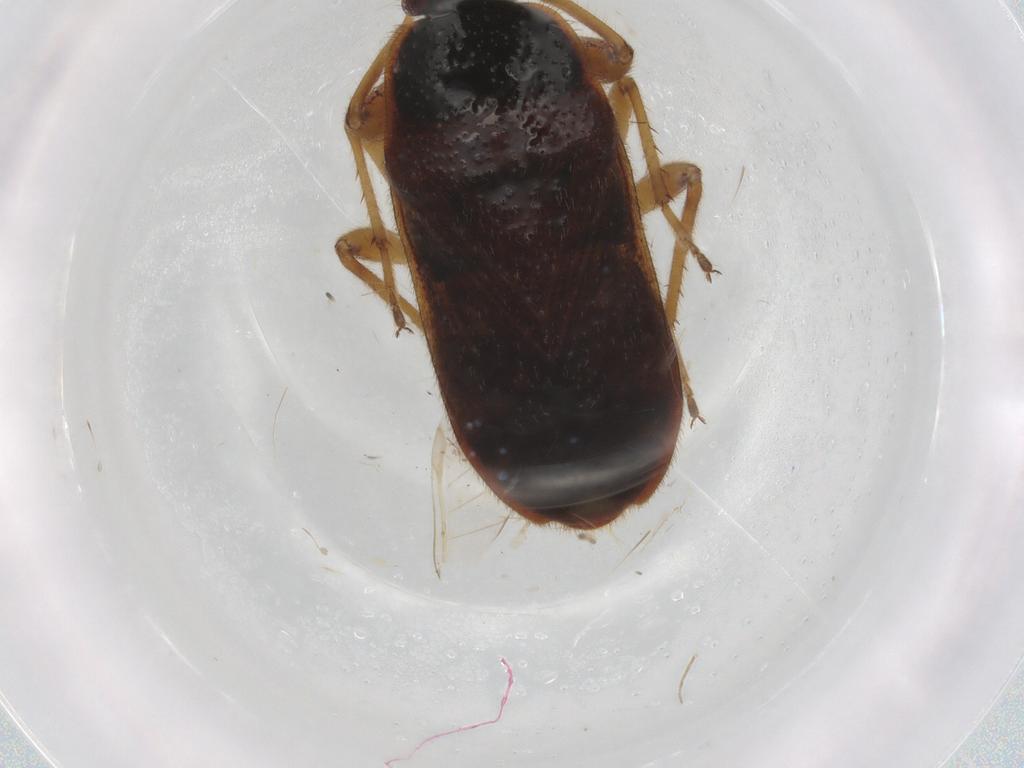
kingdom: Animalia
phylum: Arthropoda
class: Insecta
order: Hemiptera
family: Rhyparochromidae
